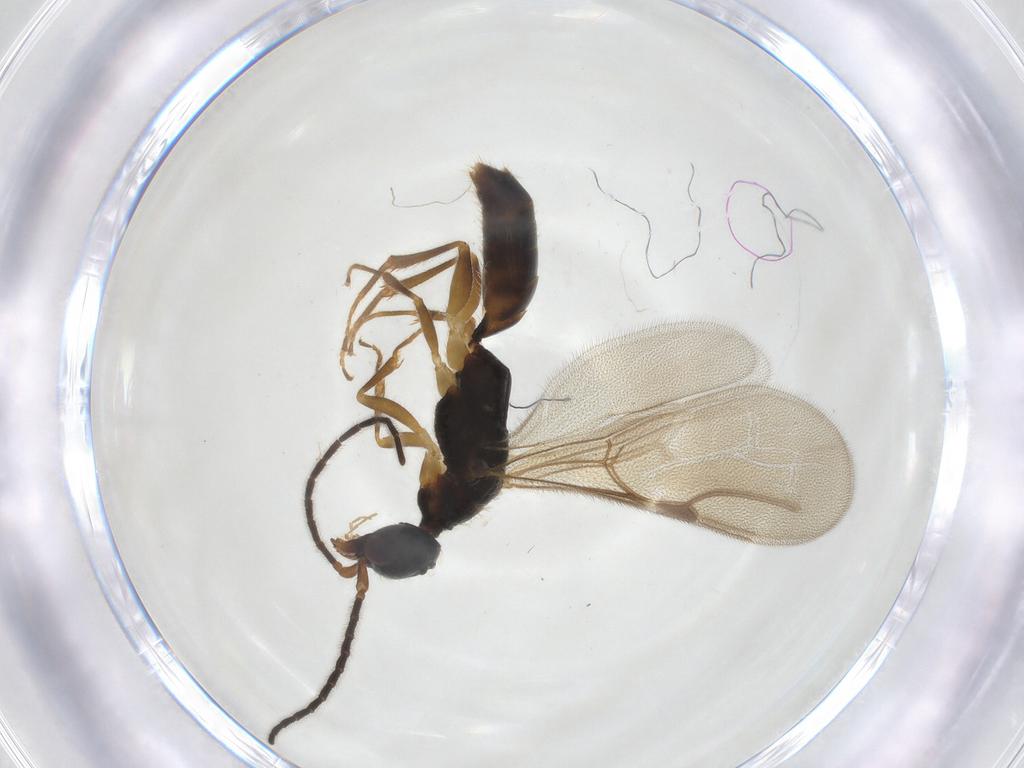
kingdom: Animalia
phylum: Arthropoda
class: Insecta
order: Hymenoptera
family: Bethylidae
